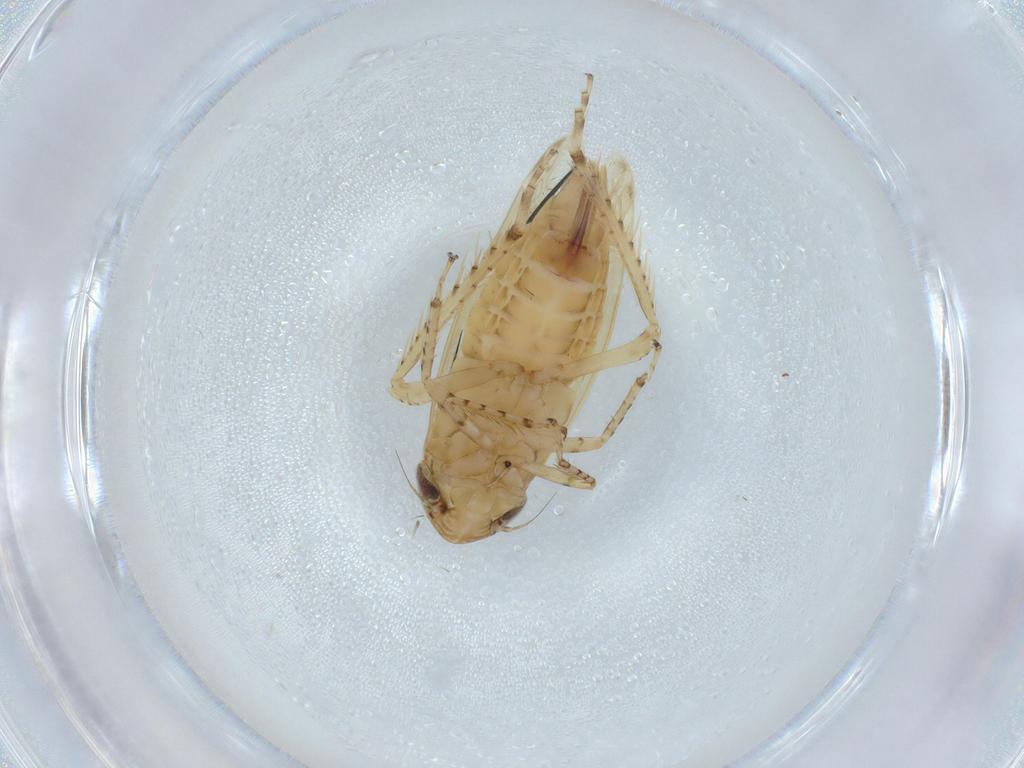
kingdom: Animalia
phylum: Arthropoda
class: Insecta
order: Hemiptera
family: Cicadellidae
